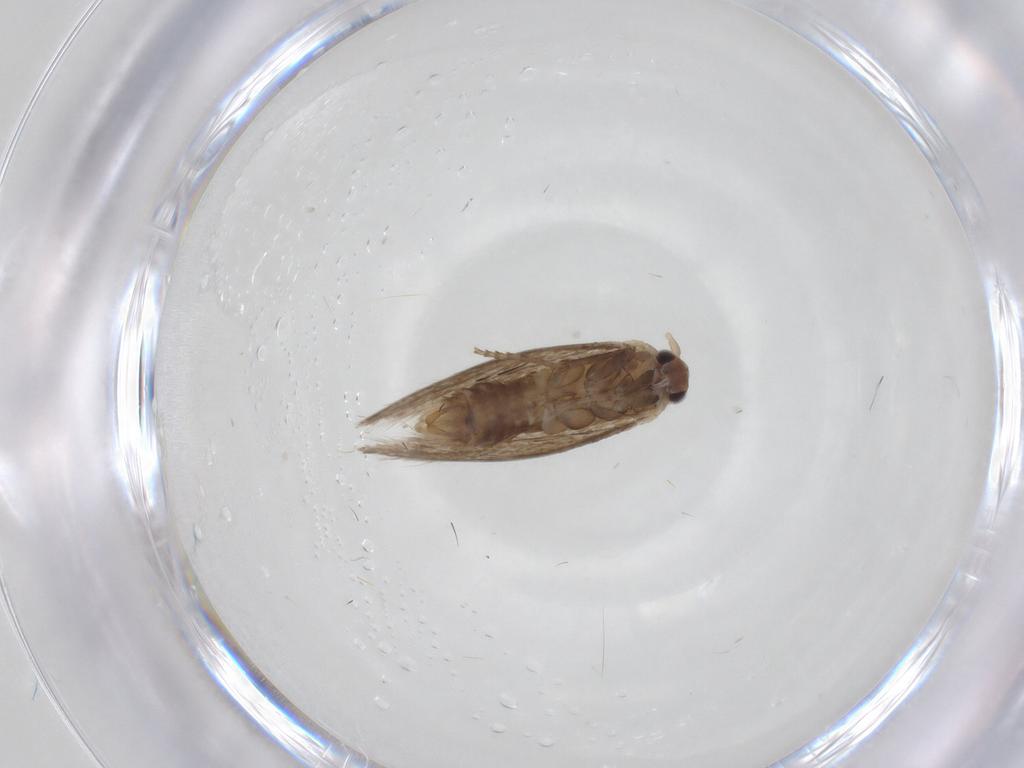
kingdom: Animalia
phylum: Arthropoda
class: Insecta
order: Lepidoptera
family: Bucculatricidae
